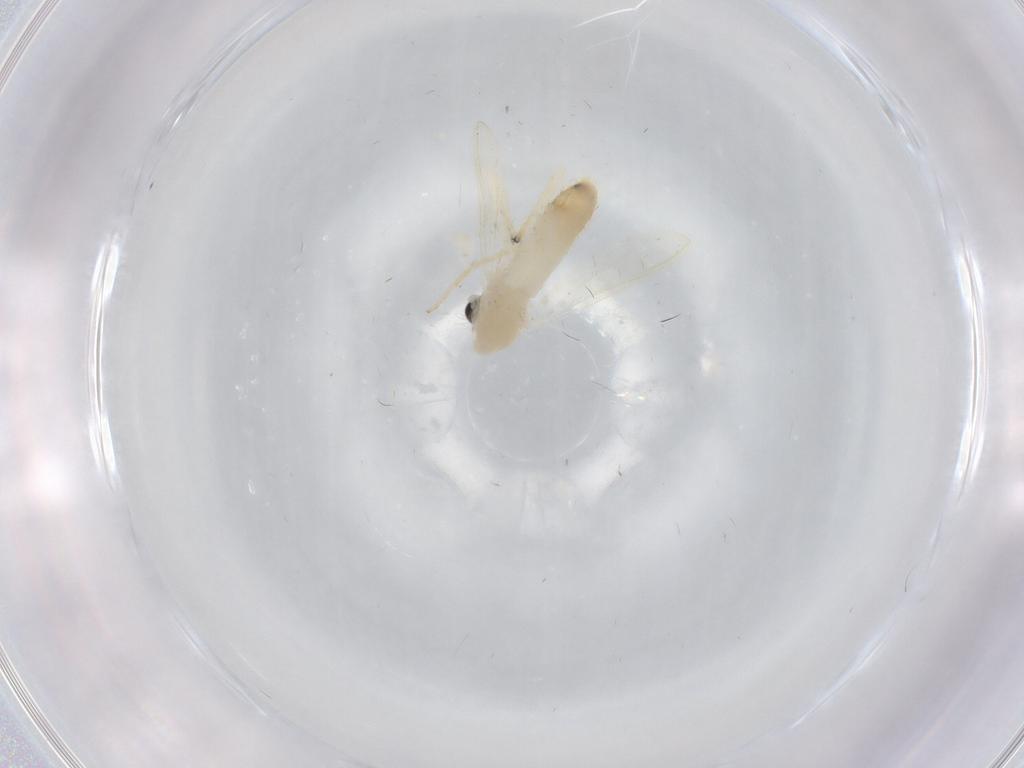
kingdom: Animalia
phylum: Arthropoda
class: Insecta
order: Diptera
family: Chironomidae
